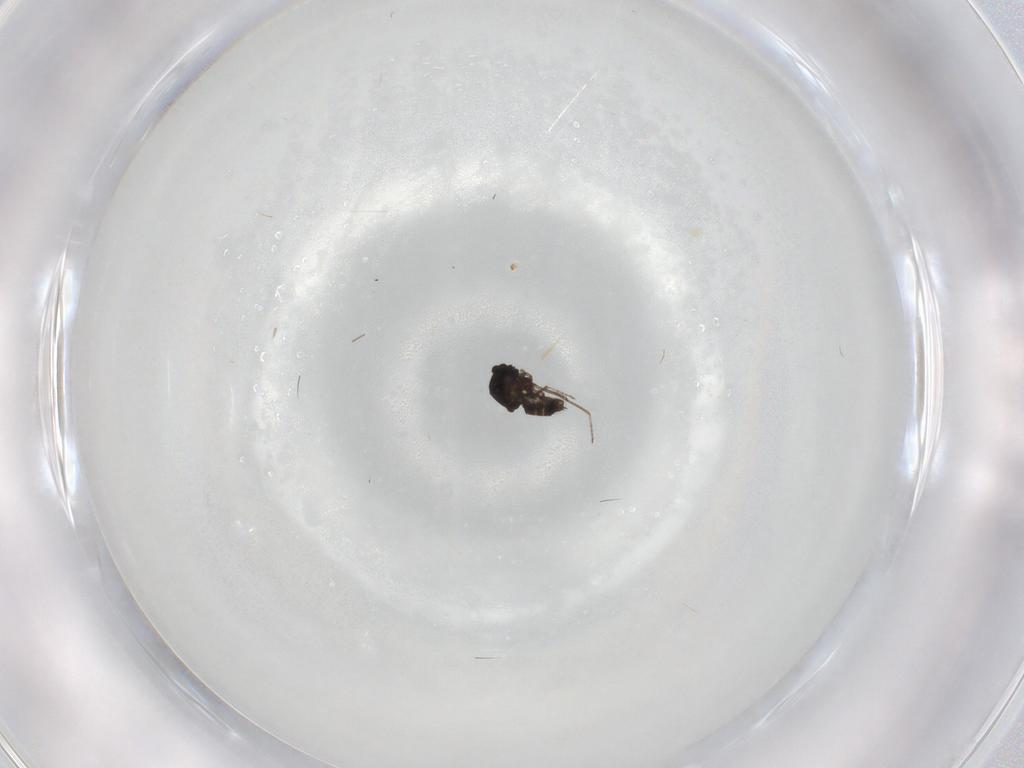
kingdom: Animalia
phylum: Arthropoda
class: Insecta
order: Diptera
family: Ceratopogonidae
